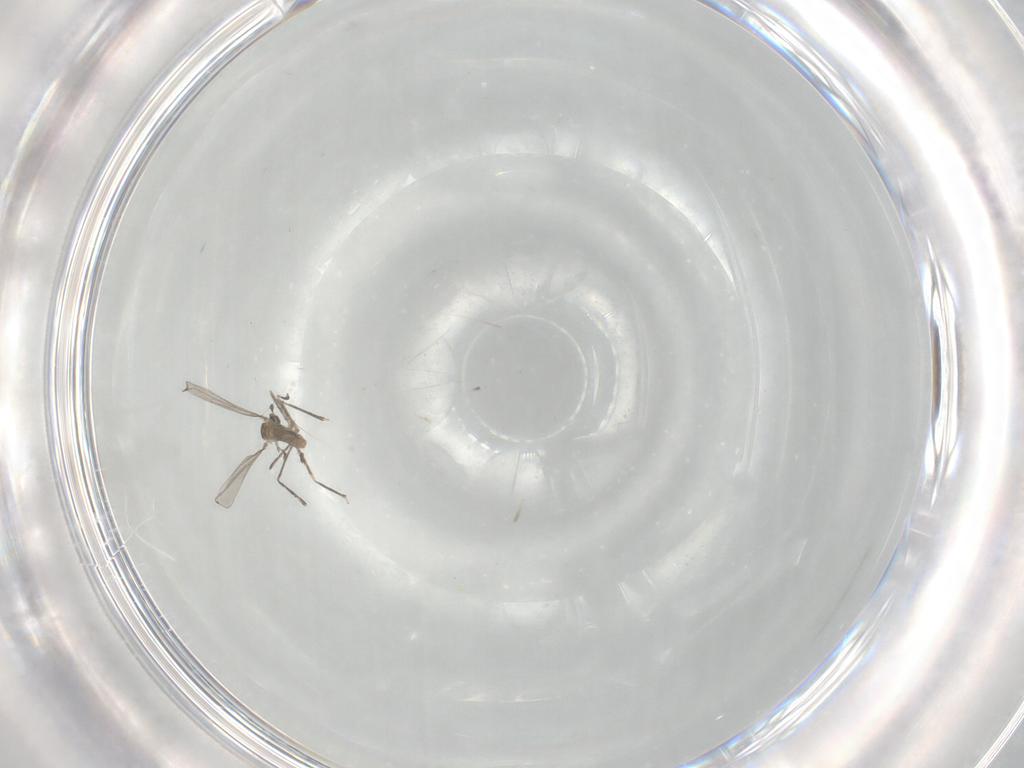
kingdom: Animalia
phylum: Arthropoda
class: Insecta
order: Diptera
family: Cecidomyiidae
